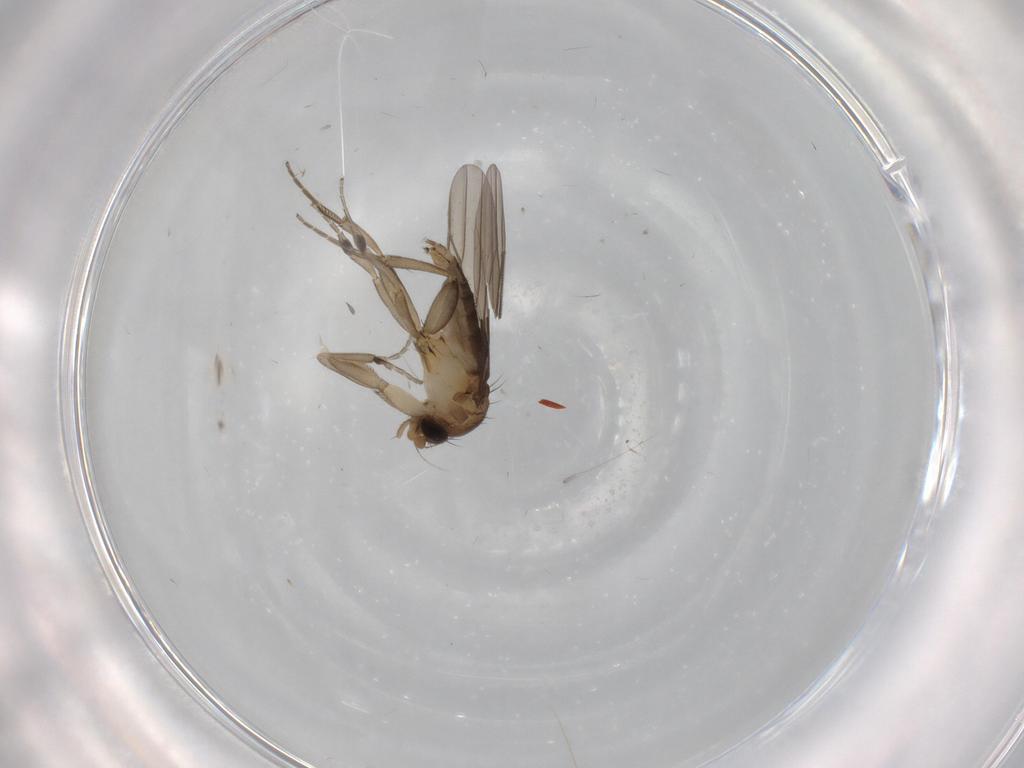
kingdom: Animalia
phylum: Arthropoda
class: Insecta
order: Diptera
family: Phoridae
